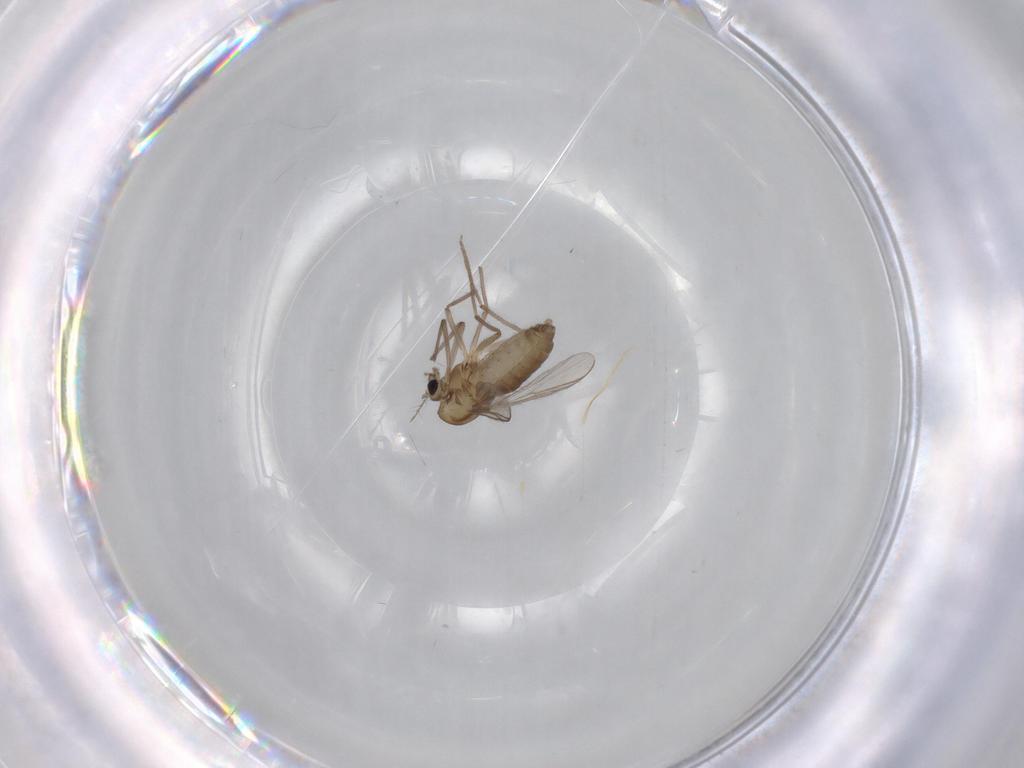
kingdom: Animalia
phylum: Arthropoda
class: Insecta
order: Diptera
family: Chironomidae
